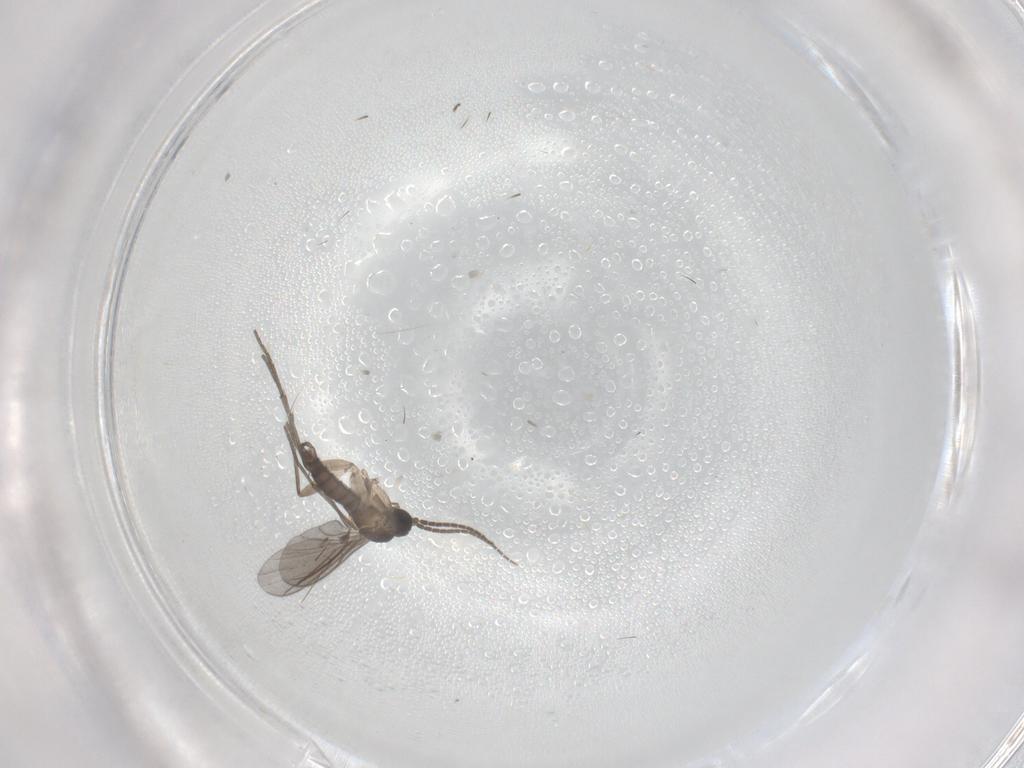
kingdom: Animalia
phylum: Arthropoda
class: Insecta
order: Diptera
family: Sciaridae
